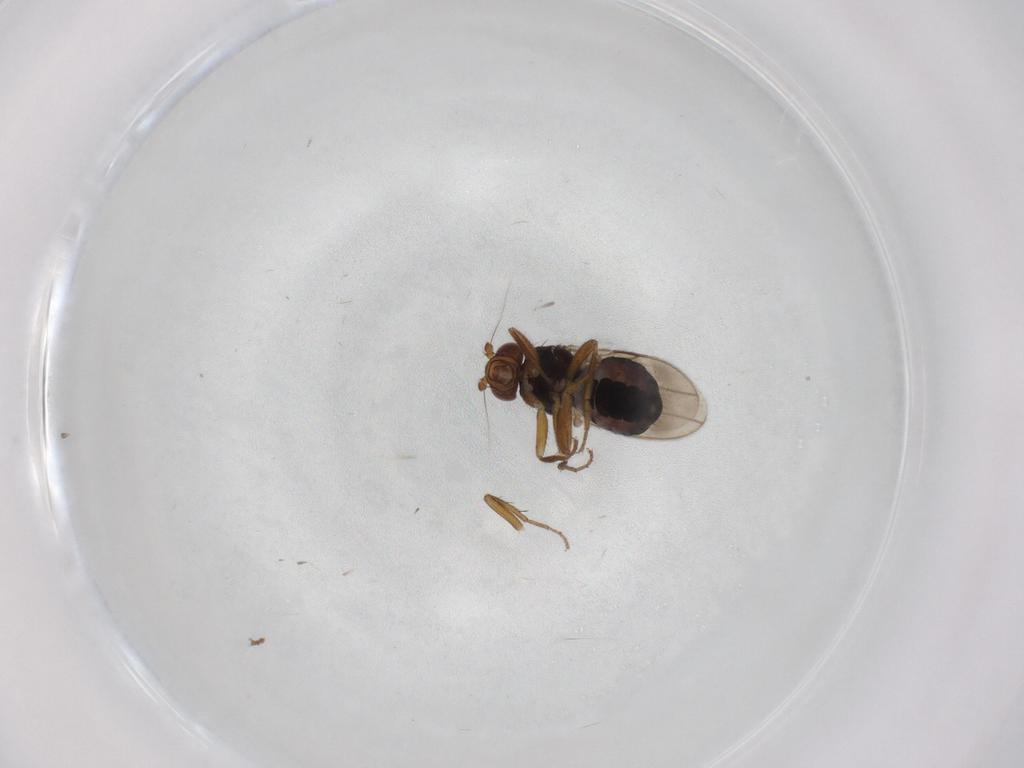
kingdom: Animalia
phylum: Arthropoda
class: Insecta
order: Diptera
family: Sphaeroceridae
